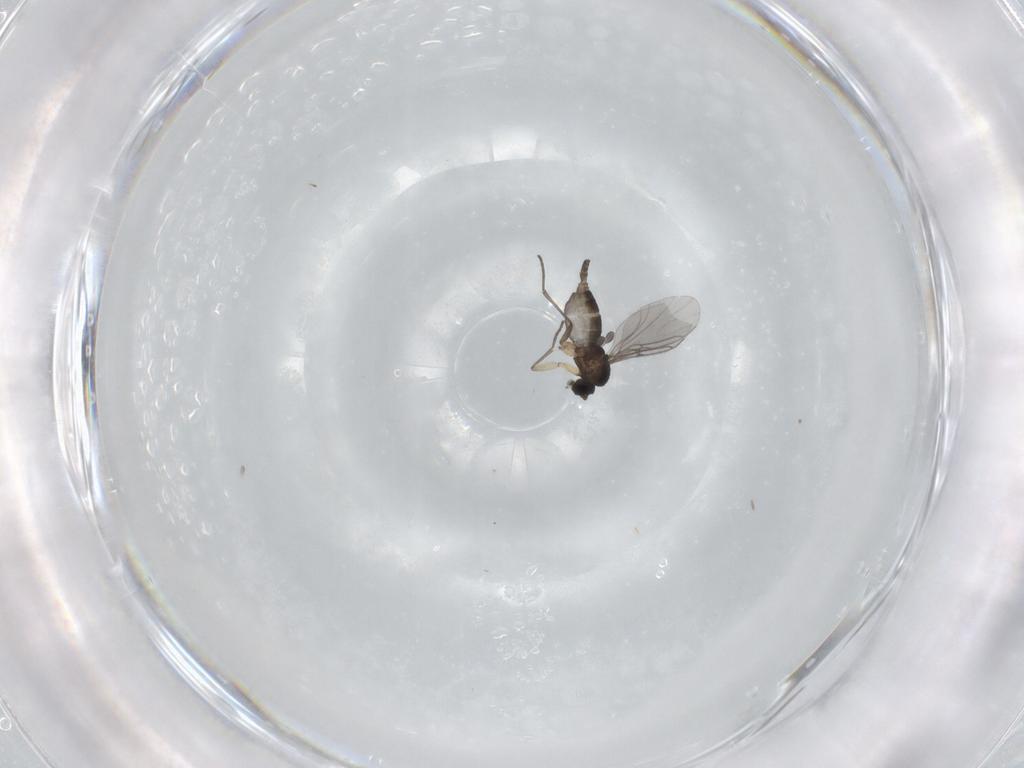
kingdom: Animalia
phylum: Arthropoda
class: Insecta
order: Diptera
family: Sciaridae
